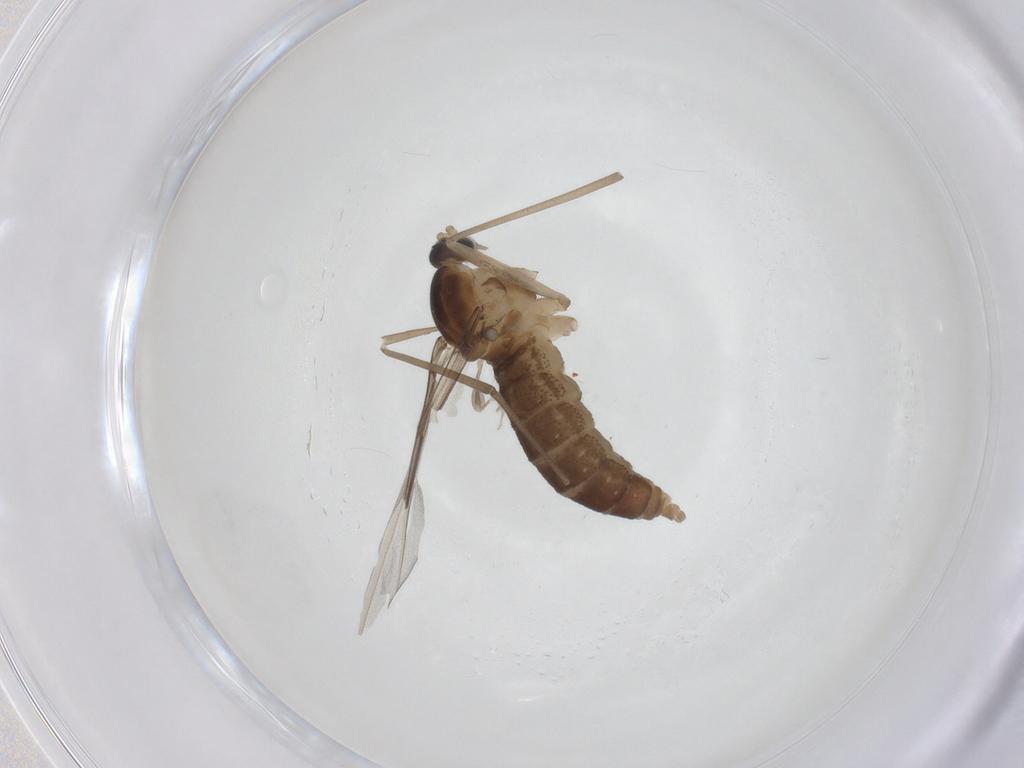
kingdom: Animalia
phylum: Arthropoda
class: Insecta
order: Diptera
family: Cecidomyiidae
